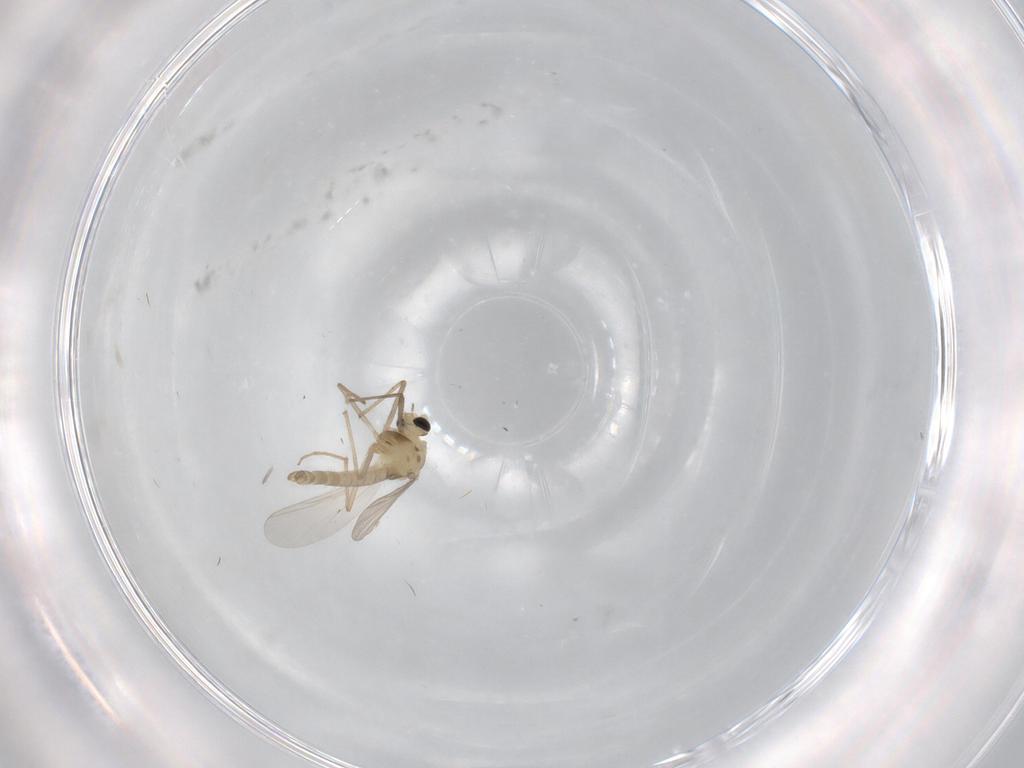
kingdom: Animalia
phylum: Arthropoda
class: Insecta
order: Diptera
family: Chironomidae
